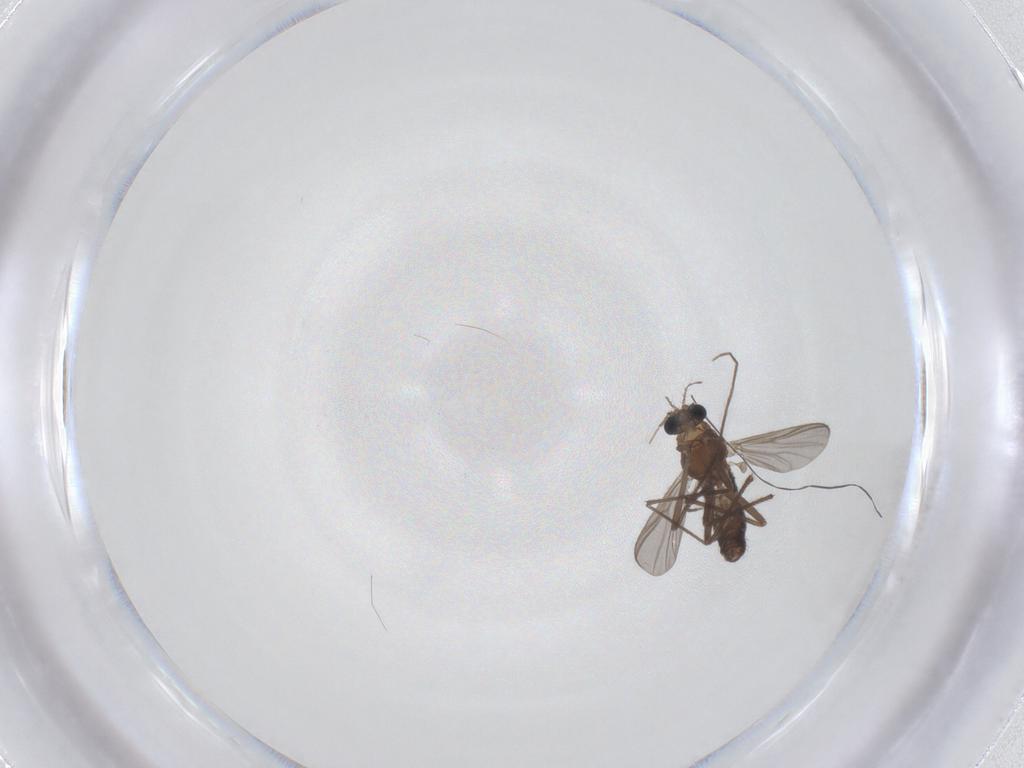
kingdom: Animalia
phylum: Arthropoda
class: Insecta
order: Diptera
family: Chironomidae
